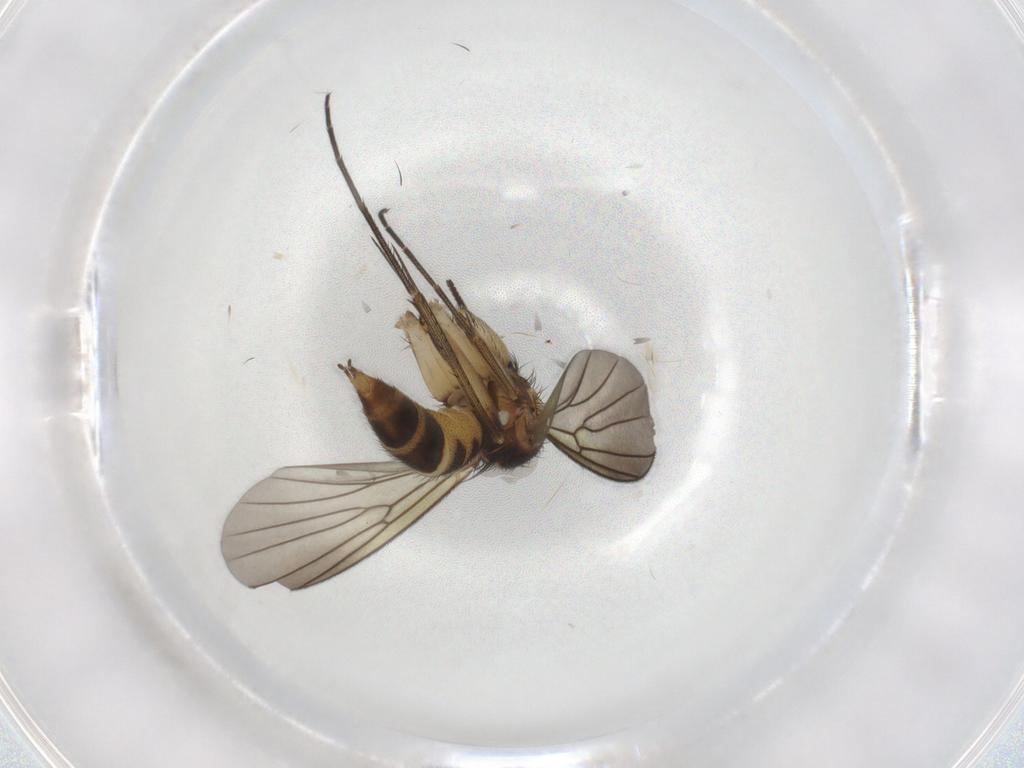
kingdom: Animalia
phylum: Arthropoda
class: Insecta
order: Diptera
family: Mycetophilidae
